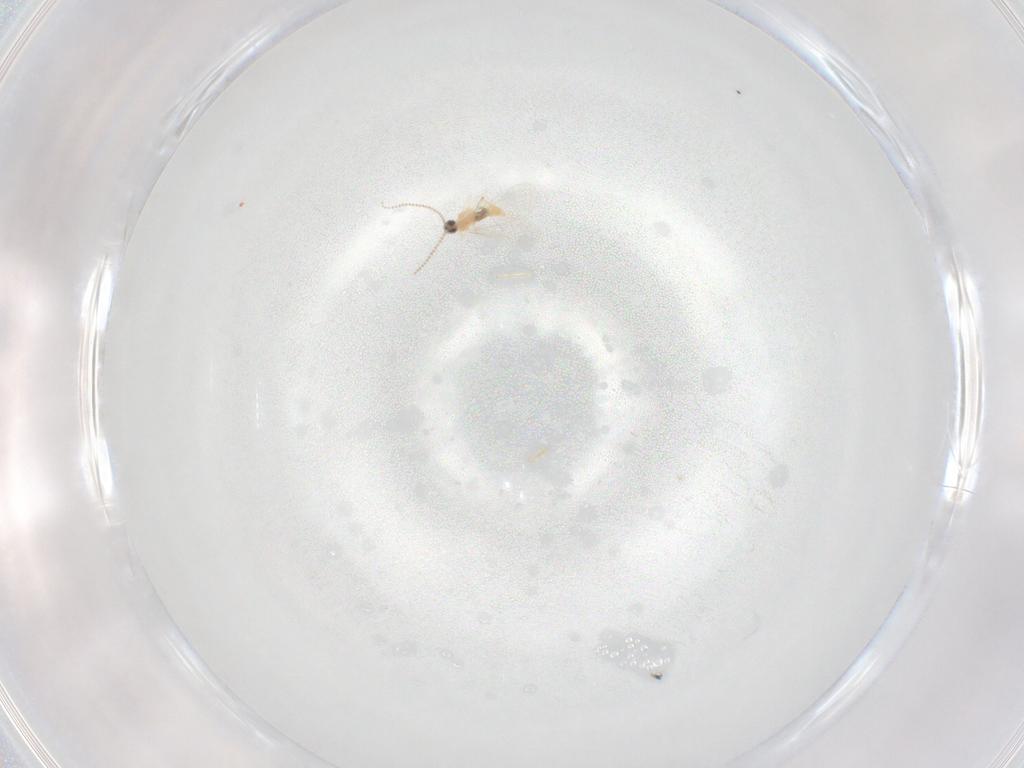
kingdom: Animalia
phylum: Arthropoda
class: Insecta
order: Diptera
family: Cecidomyiidae
